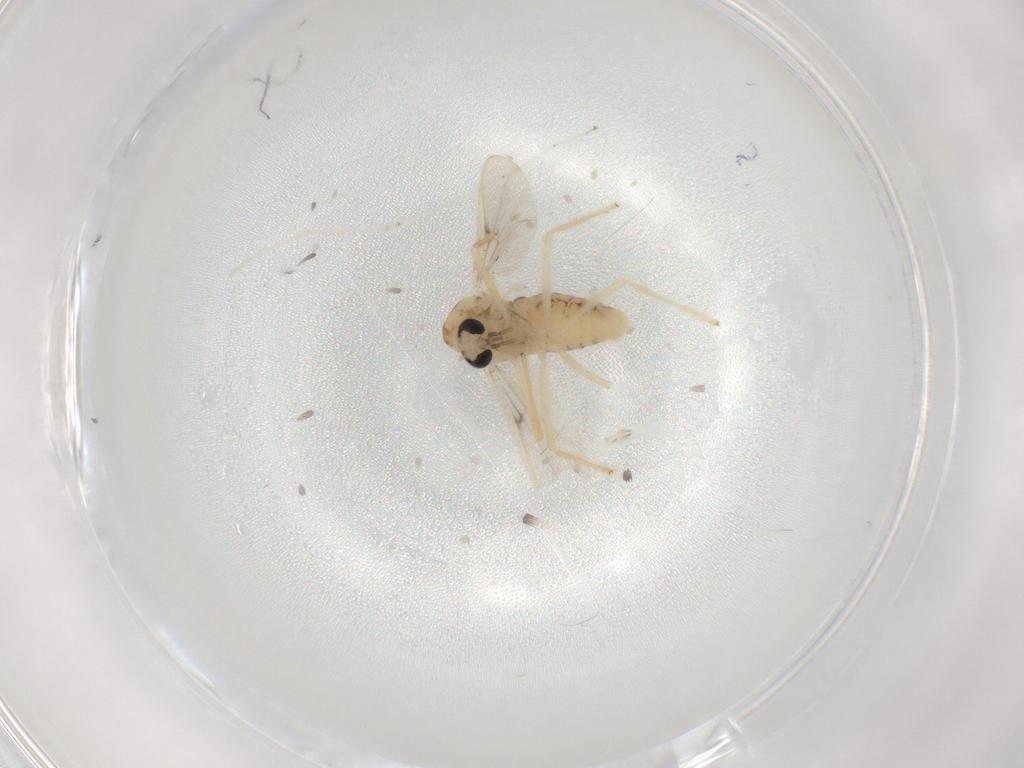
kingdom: Animalia
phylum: Arthropoda
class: Insecta
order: Diptera
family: Chironomidae
